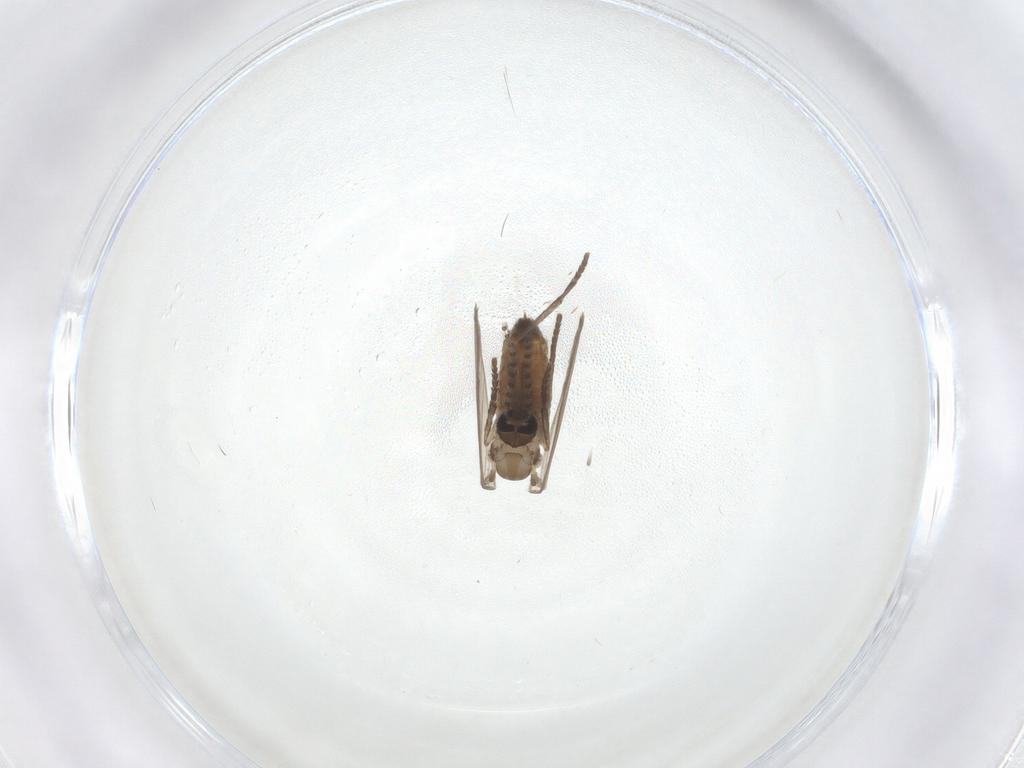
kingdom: Animalia
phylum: Arthropoda
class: Insecta
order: Diptera
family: Psychodidae
